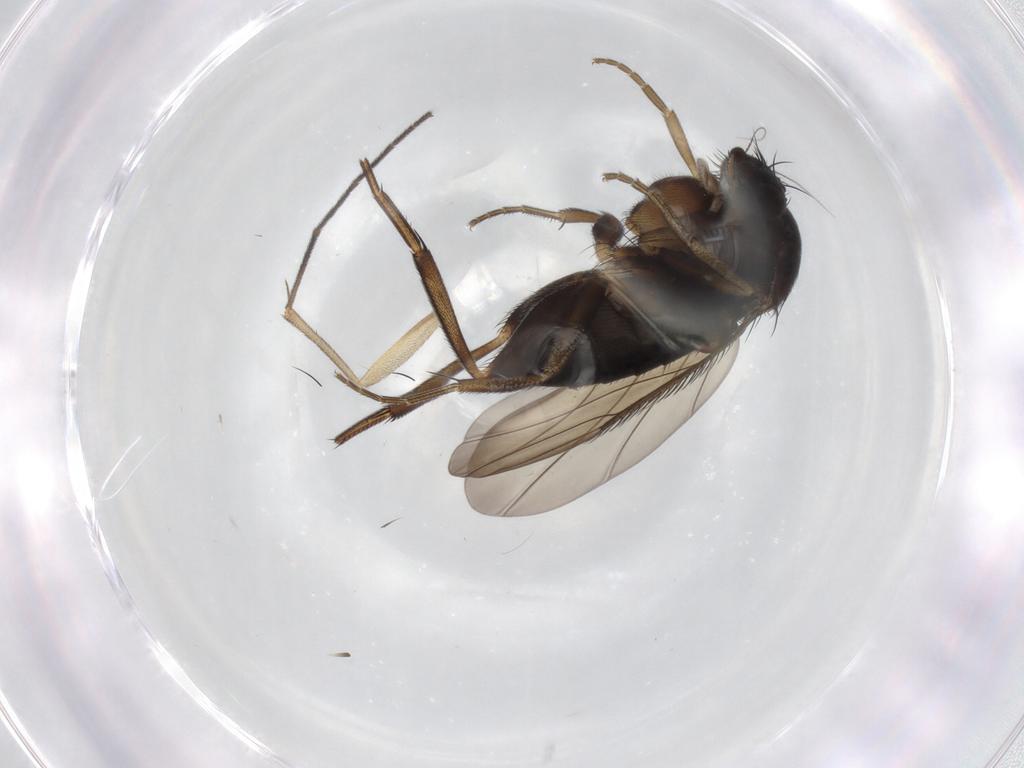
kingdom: Animalia
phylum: Arthropoda
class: Insecta
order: Diptera
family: Phoridae
